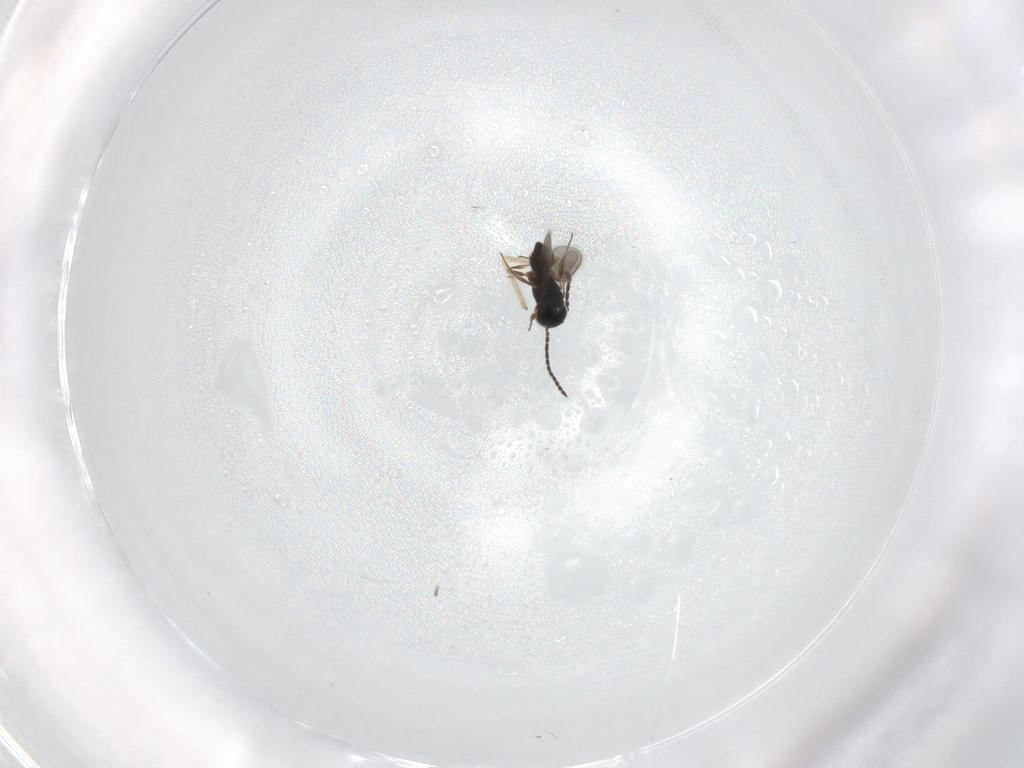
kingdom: Animalia
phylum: Arthropoda
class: Insecta
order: Hymenoptera
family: Scelionidae
